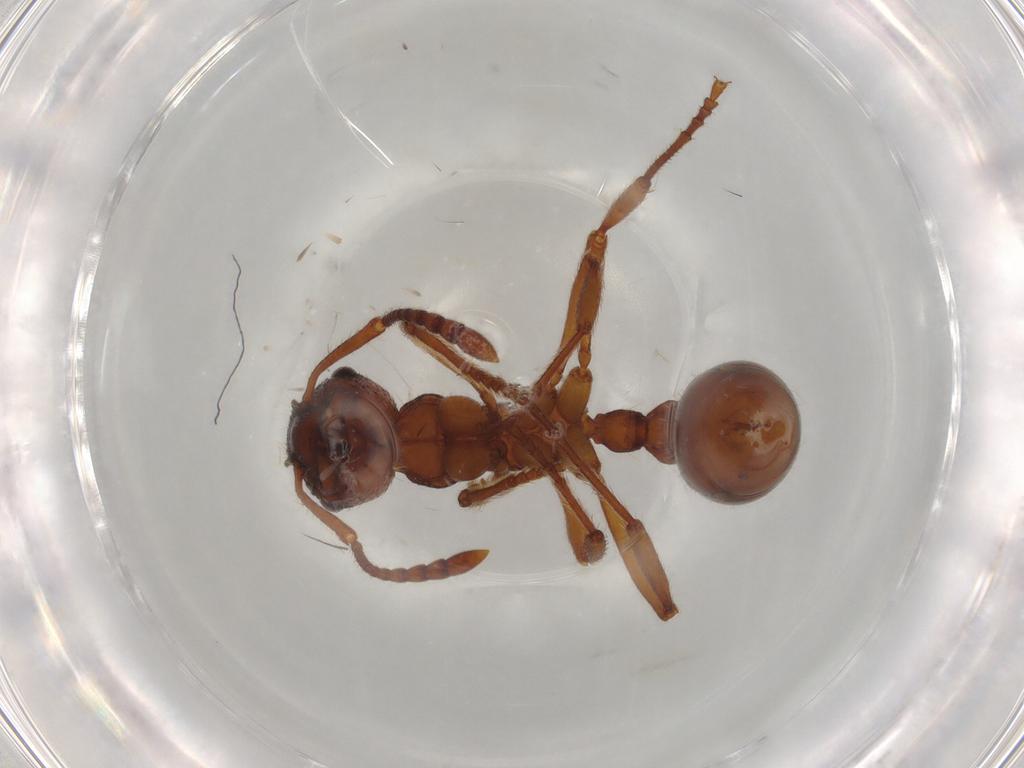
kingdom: Animalia
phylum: Arthropoda
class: Insecta
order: Hymenoptera
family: Formicidae
